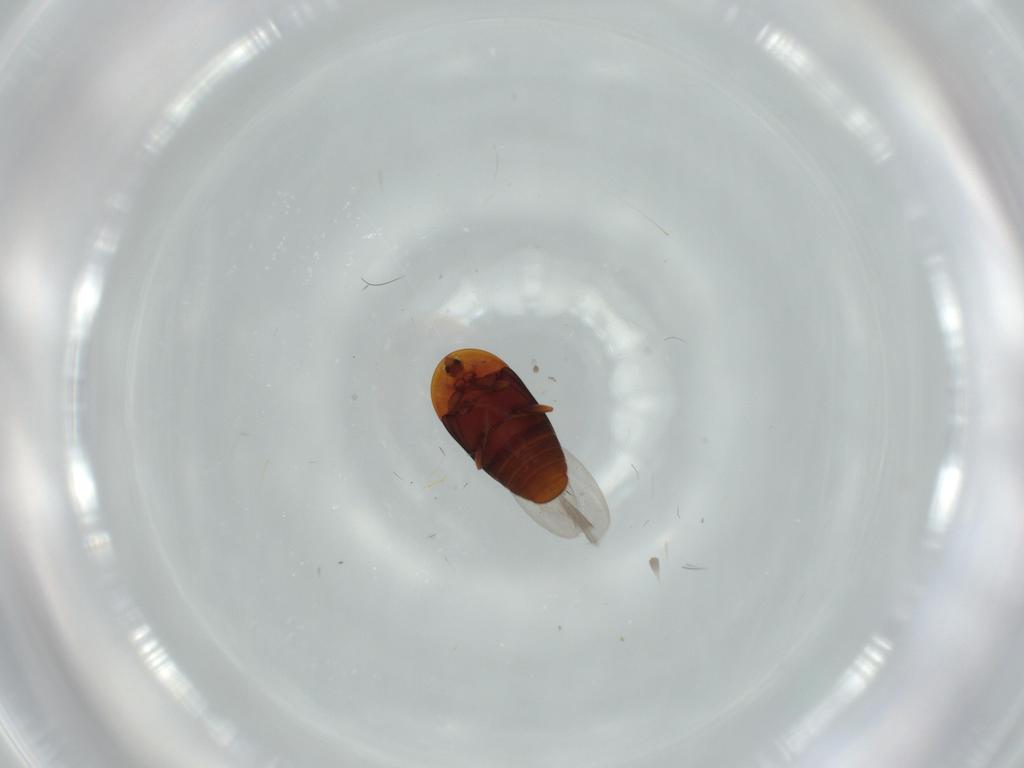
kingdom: Animalia
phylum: Arthropoda
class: Insecta
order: Coleoptera
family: Corylophidae
